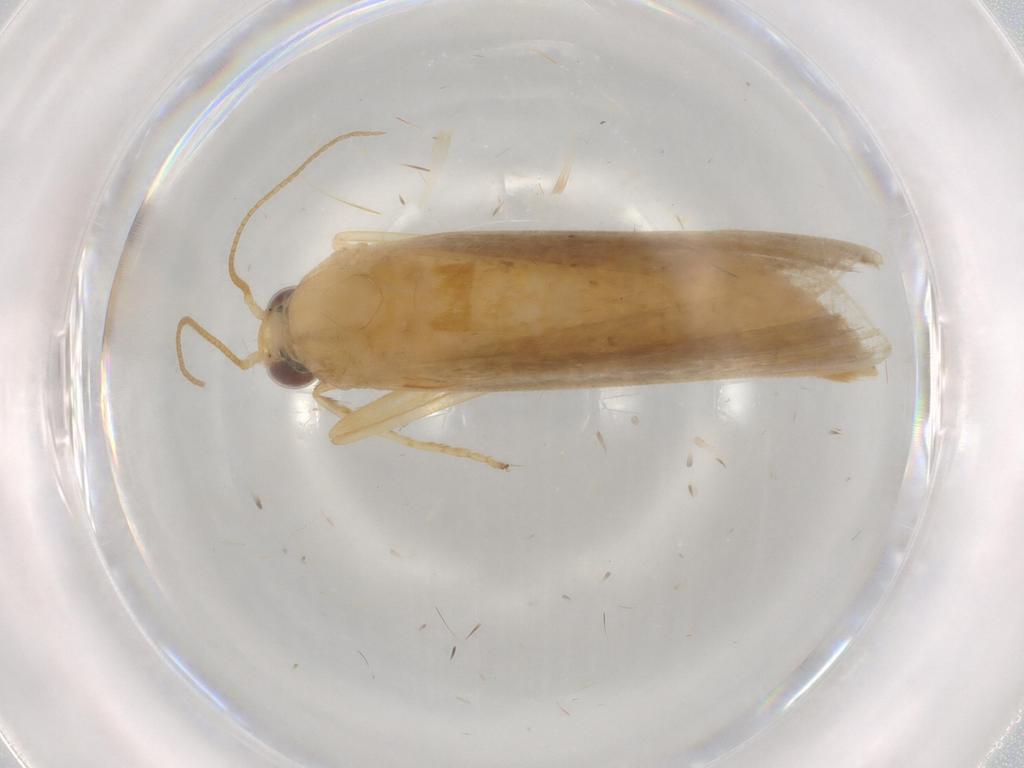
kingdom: Animalia
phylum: Arthropoda
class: Insecta
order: Lepidoptera
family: Pyralidae
